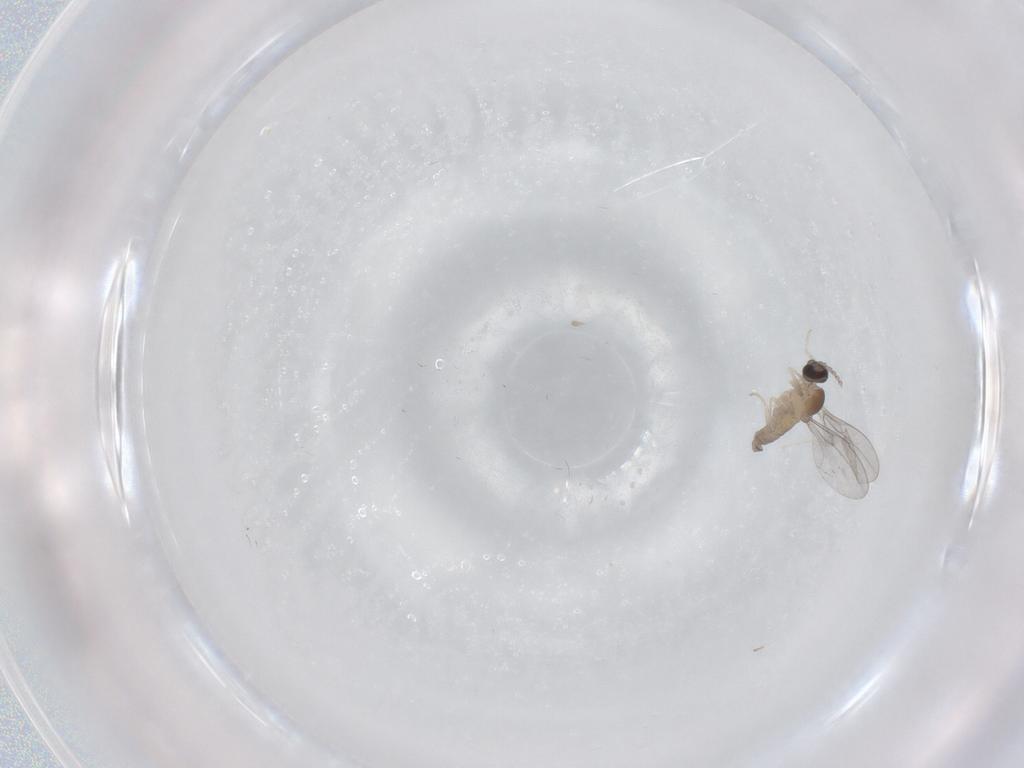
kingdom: Animalia
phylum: Arthropoda
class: Insecta
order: Diptera
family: Cecidomyiidae
